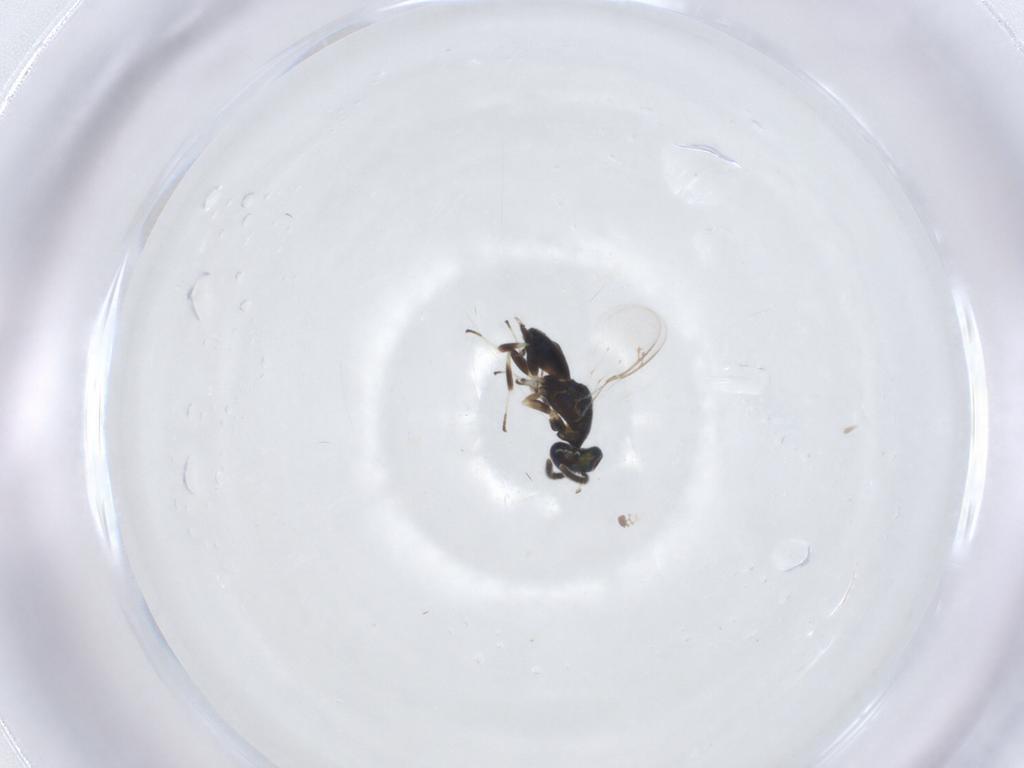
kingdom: Animalia
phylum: Arthropoda
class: Insecta
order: Hymenoptera
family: Eupelmidae
